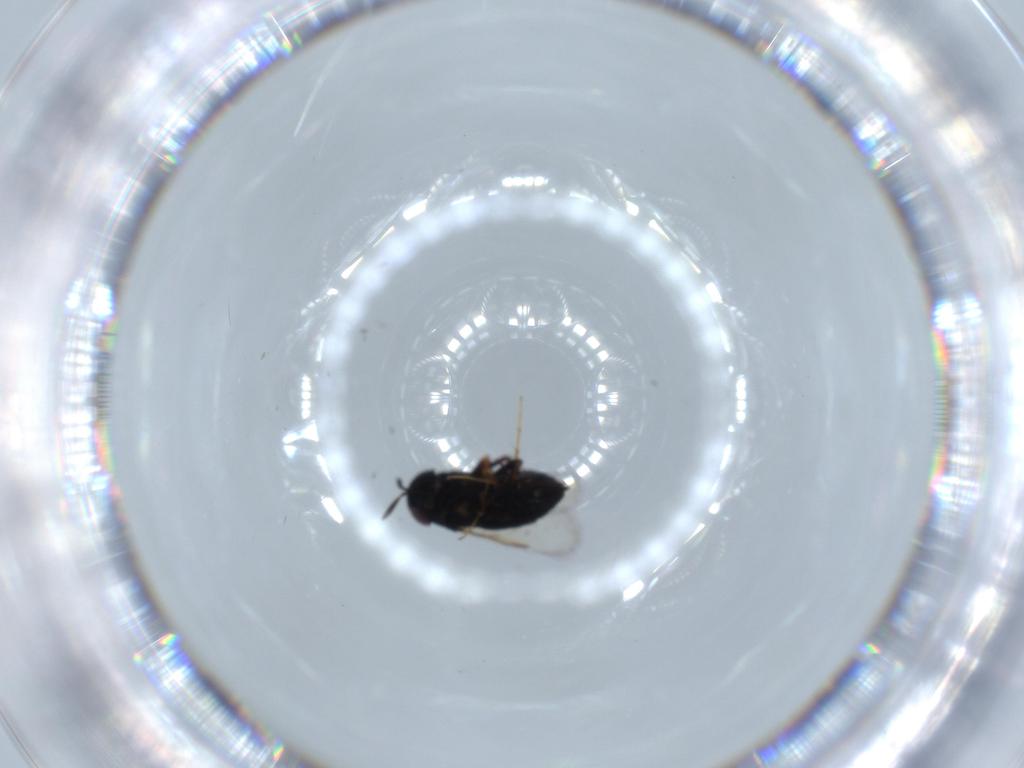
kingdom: Animalia
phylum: Arthropoda
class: Insecta
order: Hymenoptera
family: Signiphoridae
